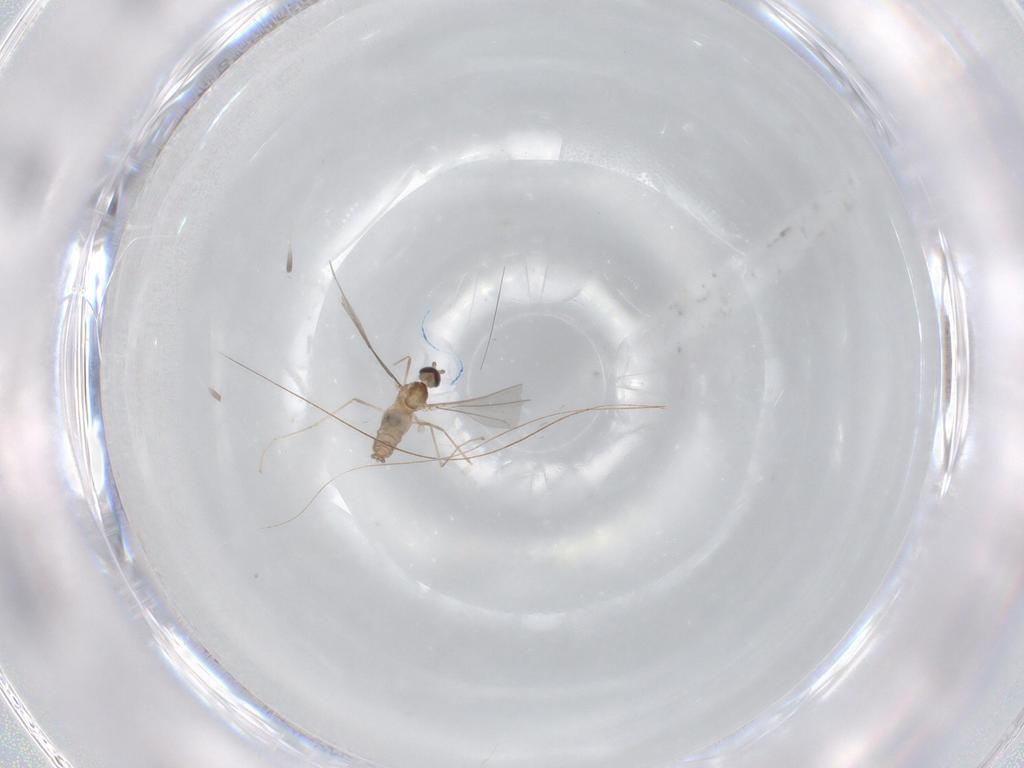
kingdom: Animalia
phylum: Arthropoda
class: Insecta
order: Diptera
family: Cecidomyiidae
